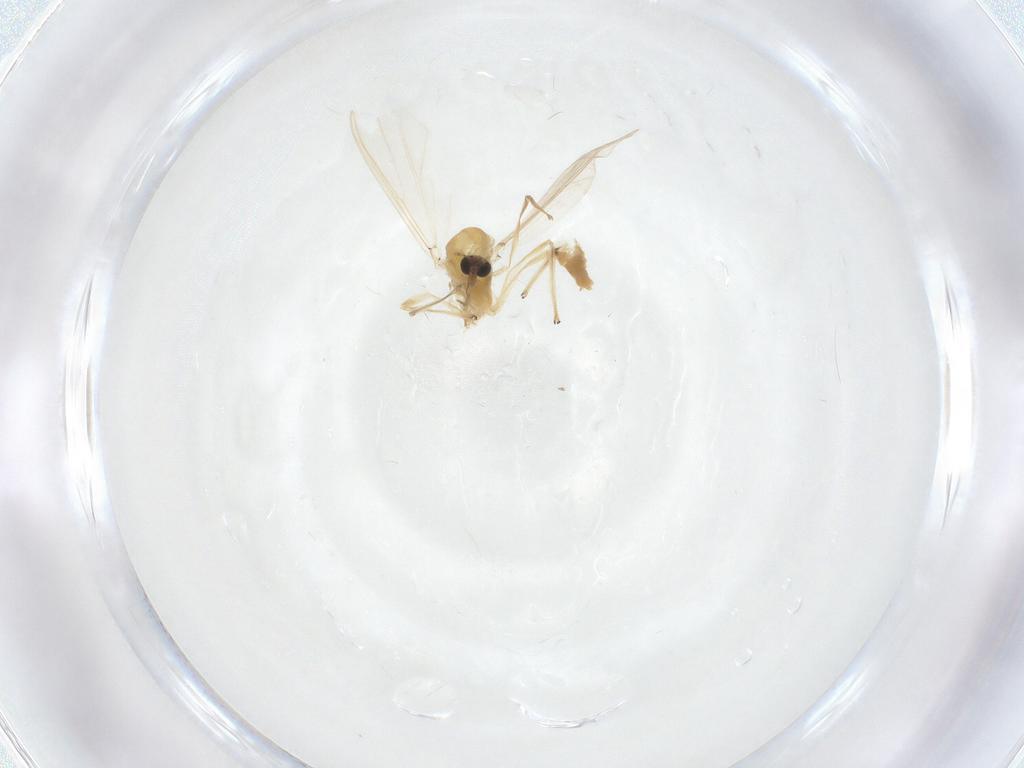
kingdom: Animalia
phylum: Arthropoda
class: Insecta
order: Diptera
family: Chironomidae
